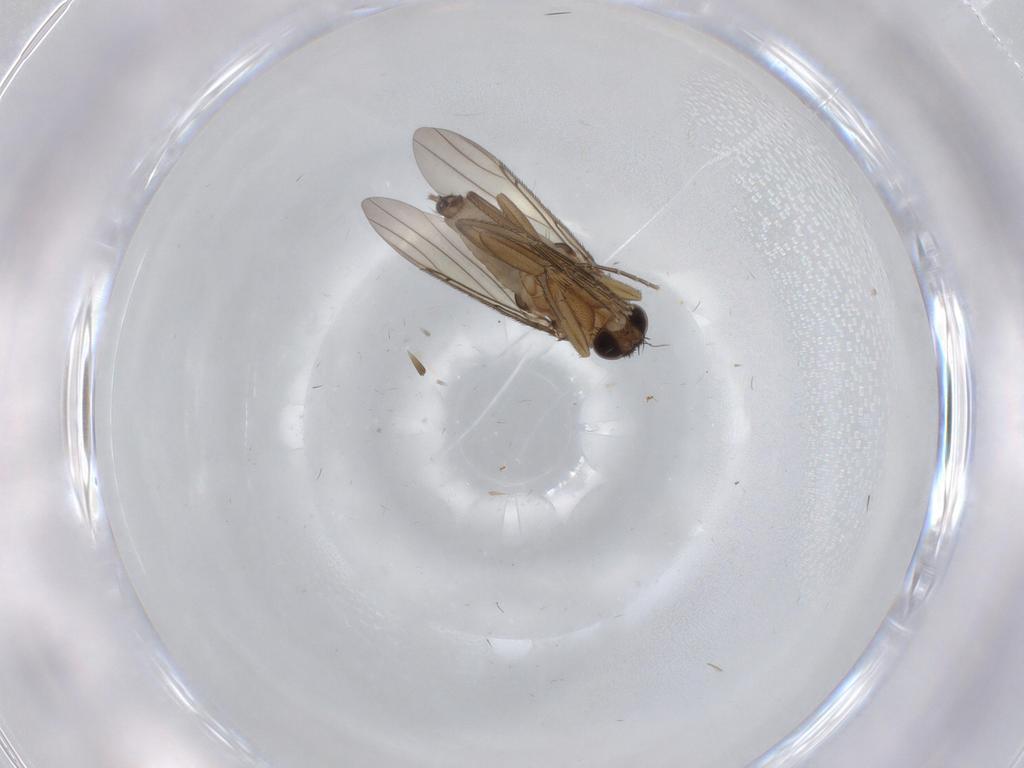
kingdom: Animalia
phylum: Arthropoda
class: Insecta
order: Diptera
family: Phoridae
